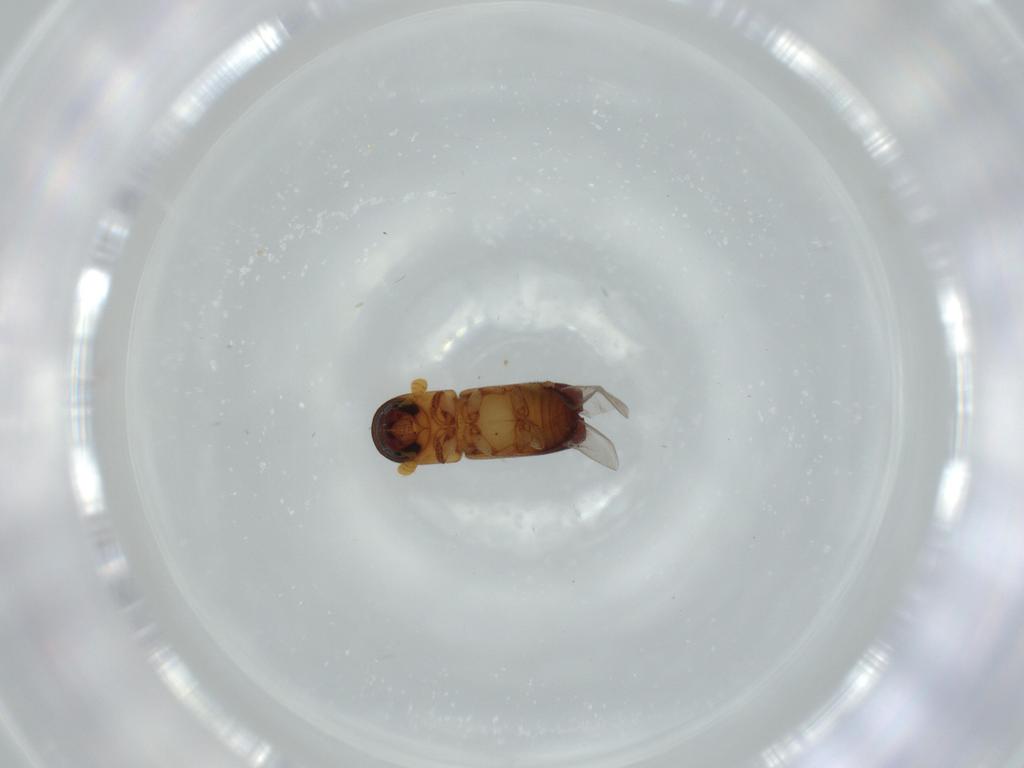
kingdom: Animalia
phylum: Arthropoda
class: Insecta
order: Coleoptera
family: Curculionidae
